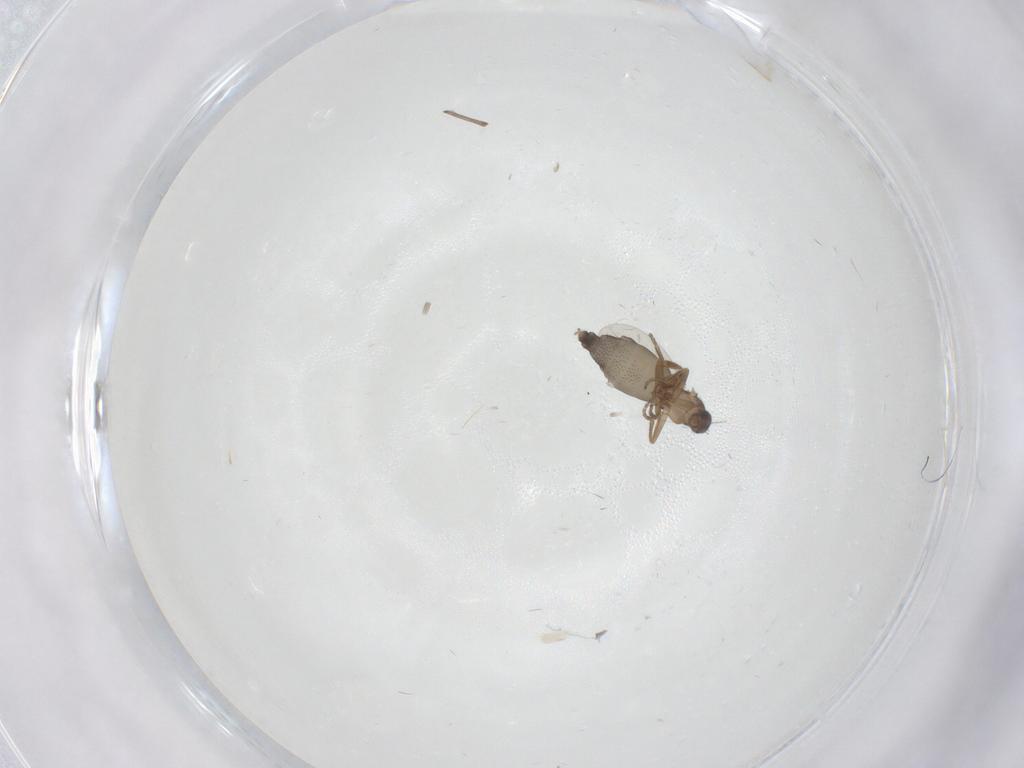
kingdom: Animalia
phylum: Arthropoda
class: Insecta
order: Diptera
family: Phoridae
